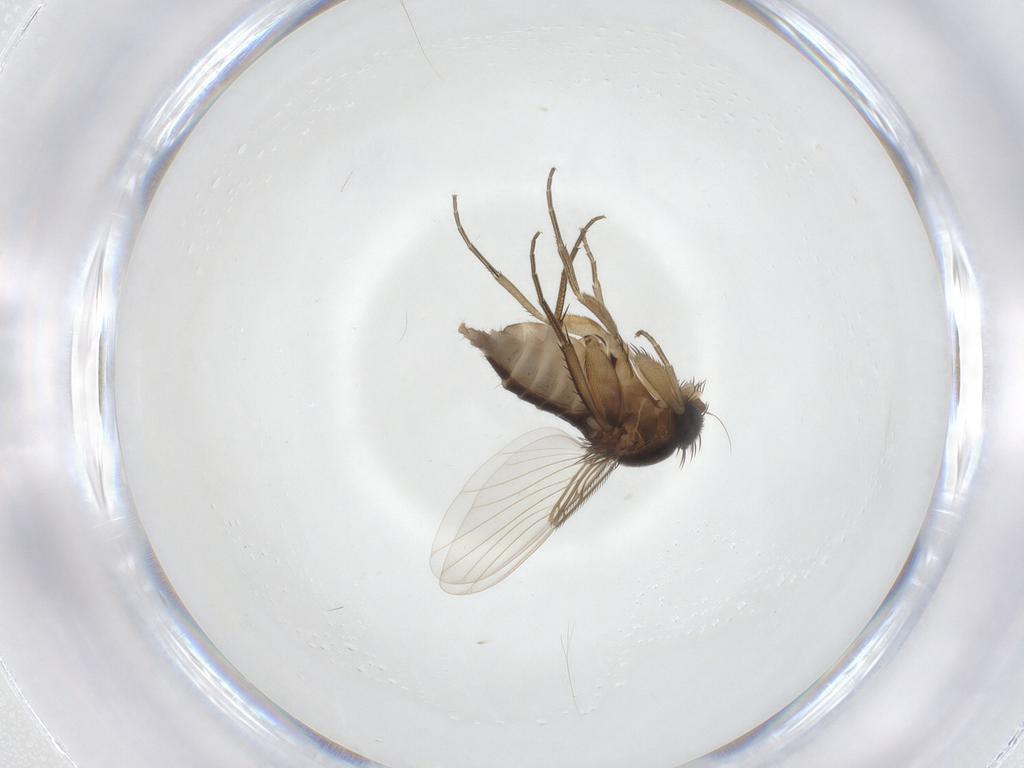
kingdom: Animalia
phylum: Arthropoda
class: Insecta
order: Diptera
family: Phoridae
